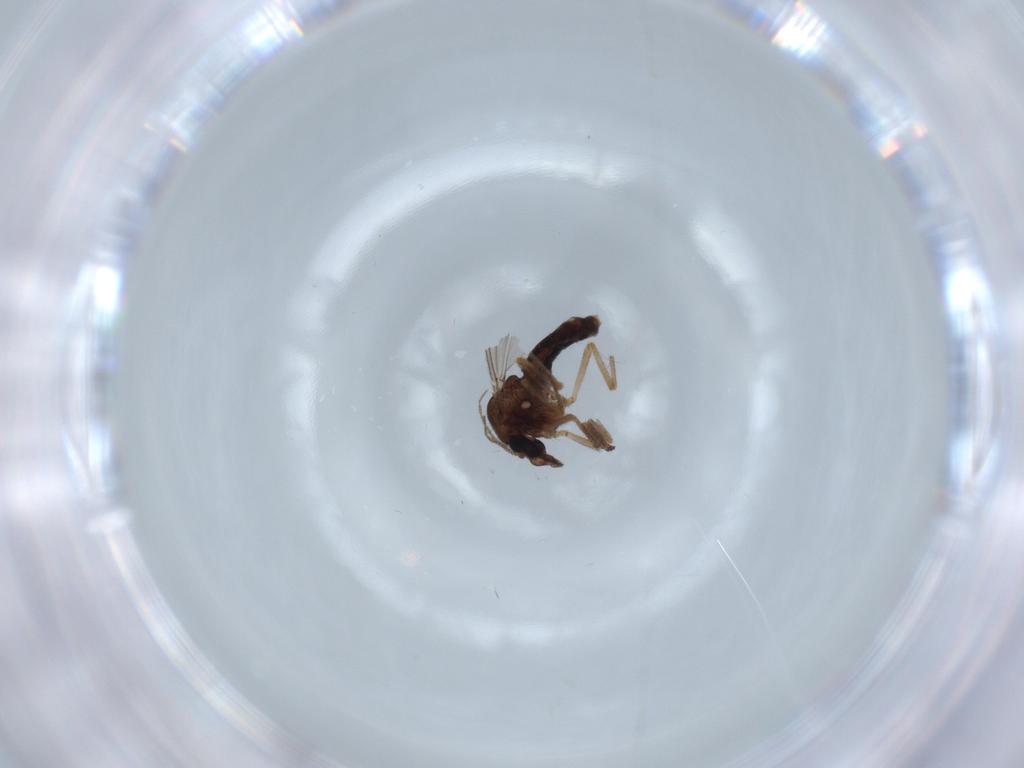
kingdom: Animalia
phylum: Arthropoda
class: Insecta
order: Diptera
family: Ceratopogonidae
